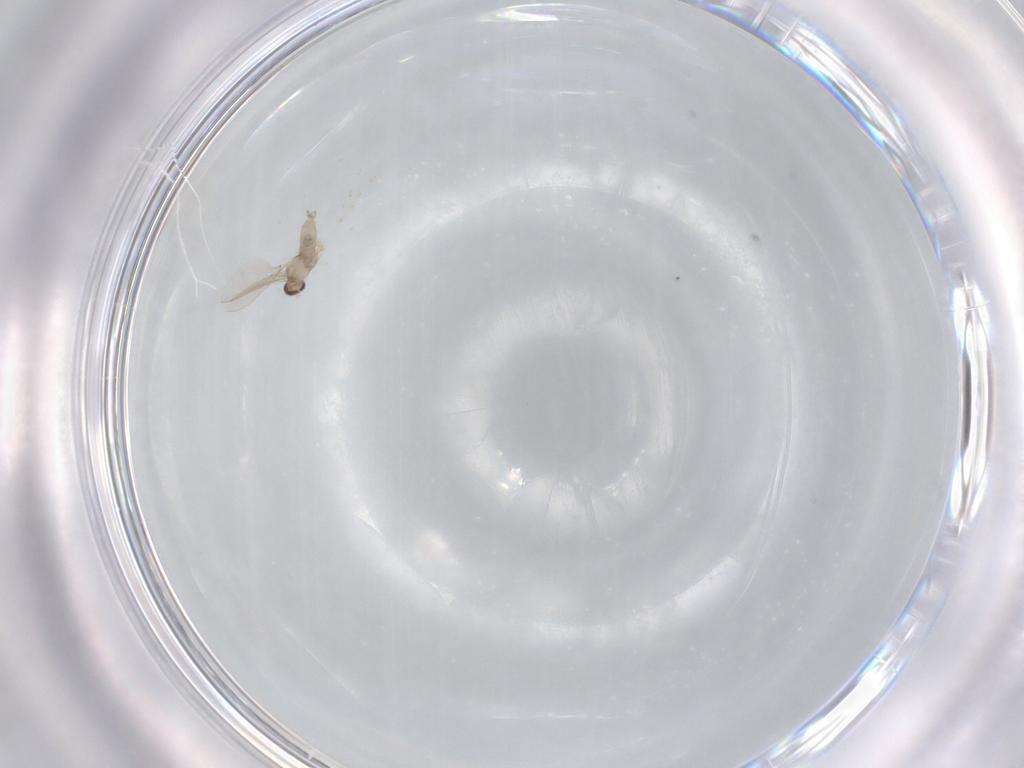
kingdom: Animalia
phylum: Arthropoda
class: Insecta
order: Diptera
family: Cecidomyiidae
